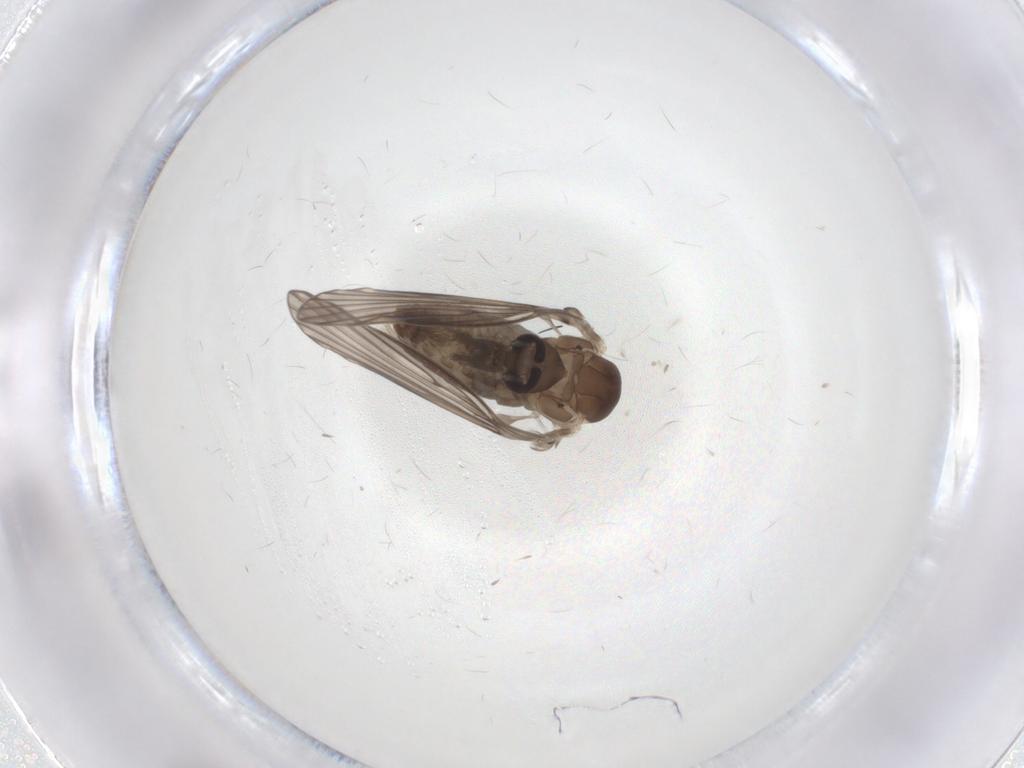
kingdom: Animalia
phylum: Arthropoda
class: Insecta
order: Diptera
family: Psychodidae
